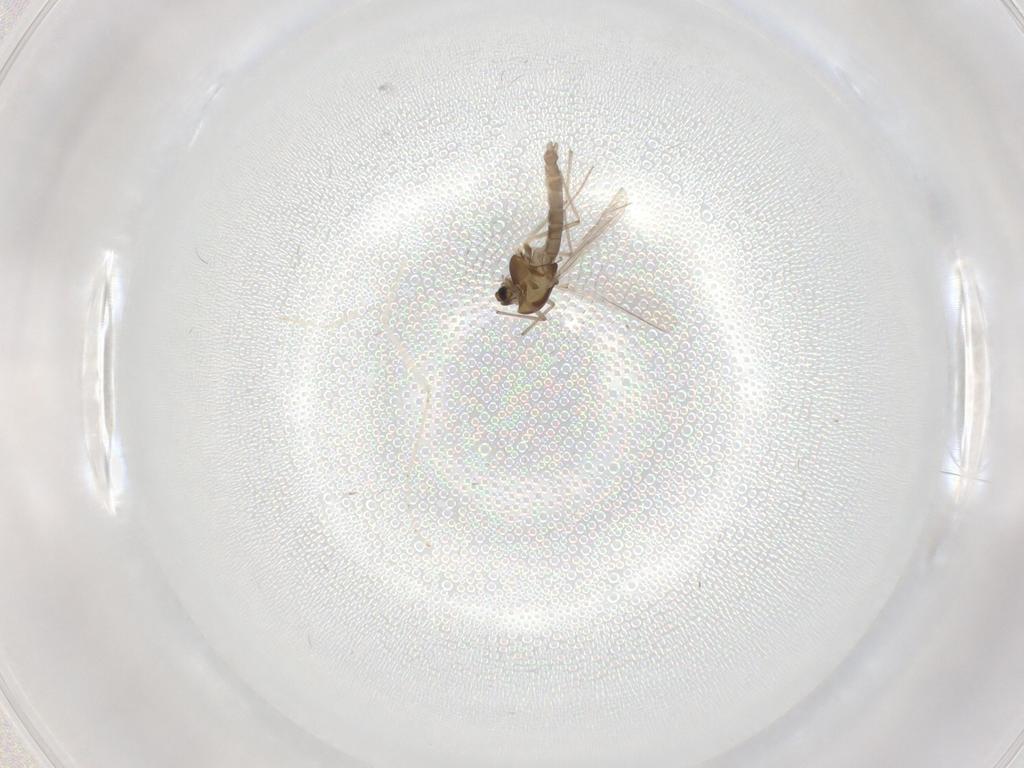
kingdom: Animalia
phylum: Arthropoda
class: Insecta
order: Diptera
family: Chironomidae
